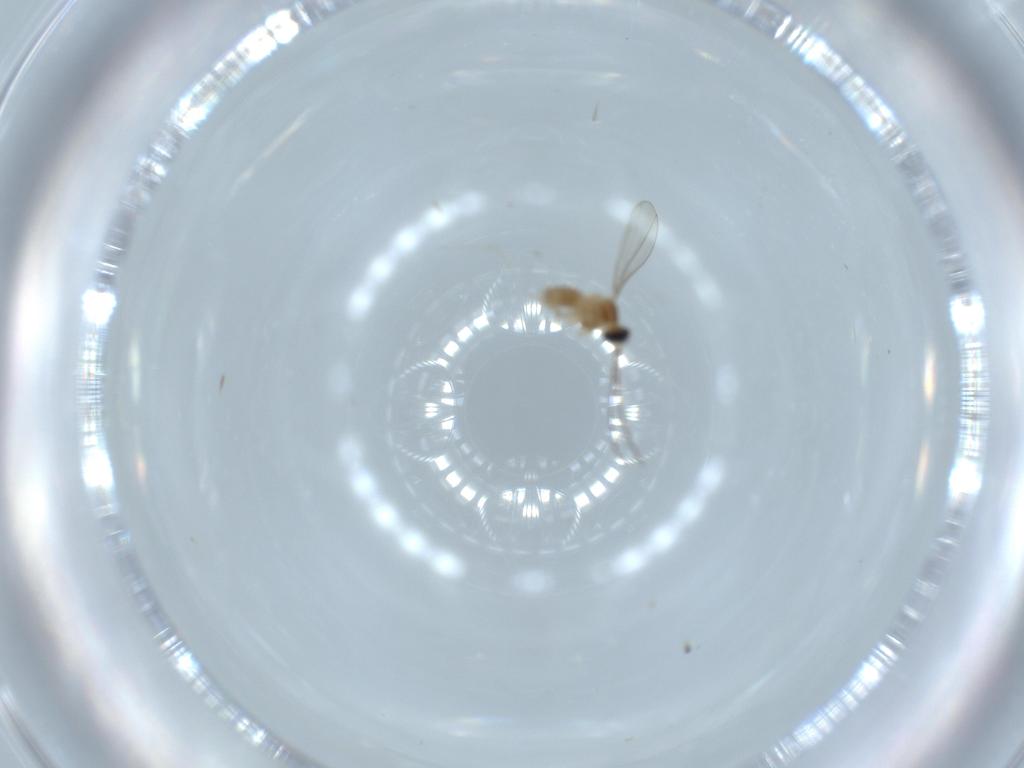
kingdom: Animalia
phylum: Arthropoda
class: Insecta
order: Diptera
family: Cecidomyiidae
